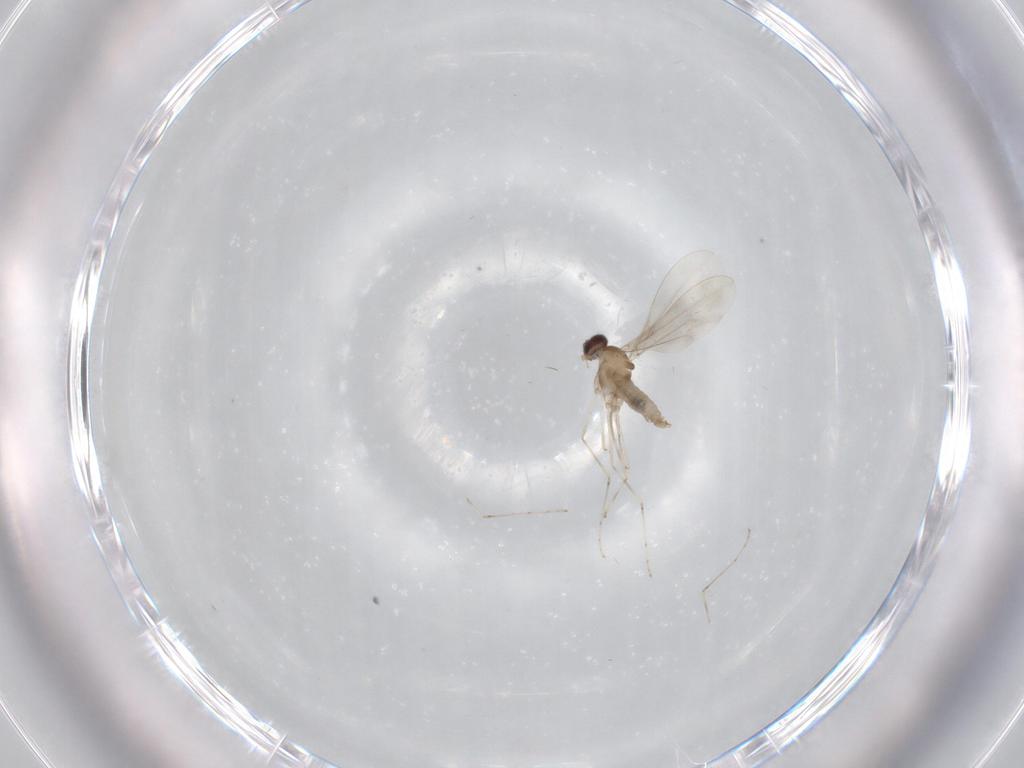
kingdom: Animalia
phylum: Arthropoda
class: Insecta
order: Diptera
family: Cecidomyiidae
